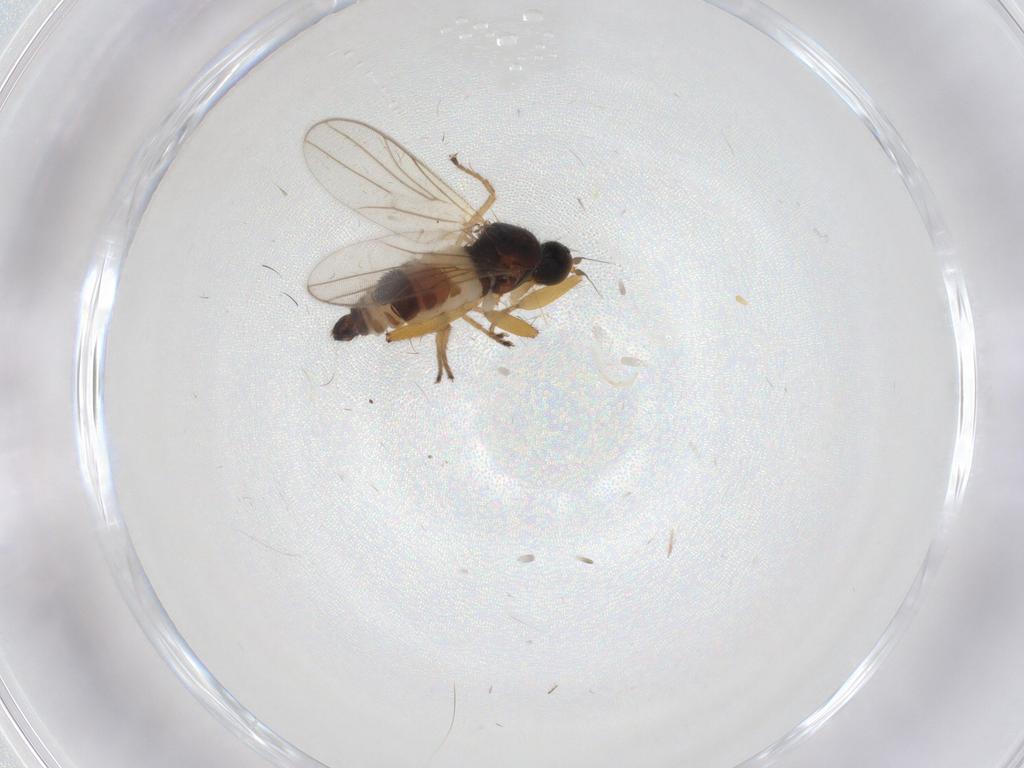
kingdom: Animalia
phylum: Arthropoda
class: Insecta
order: Diptera
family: Hybotidae
